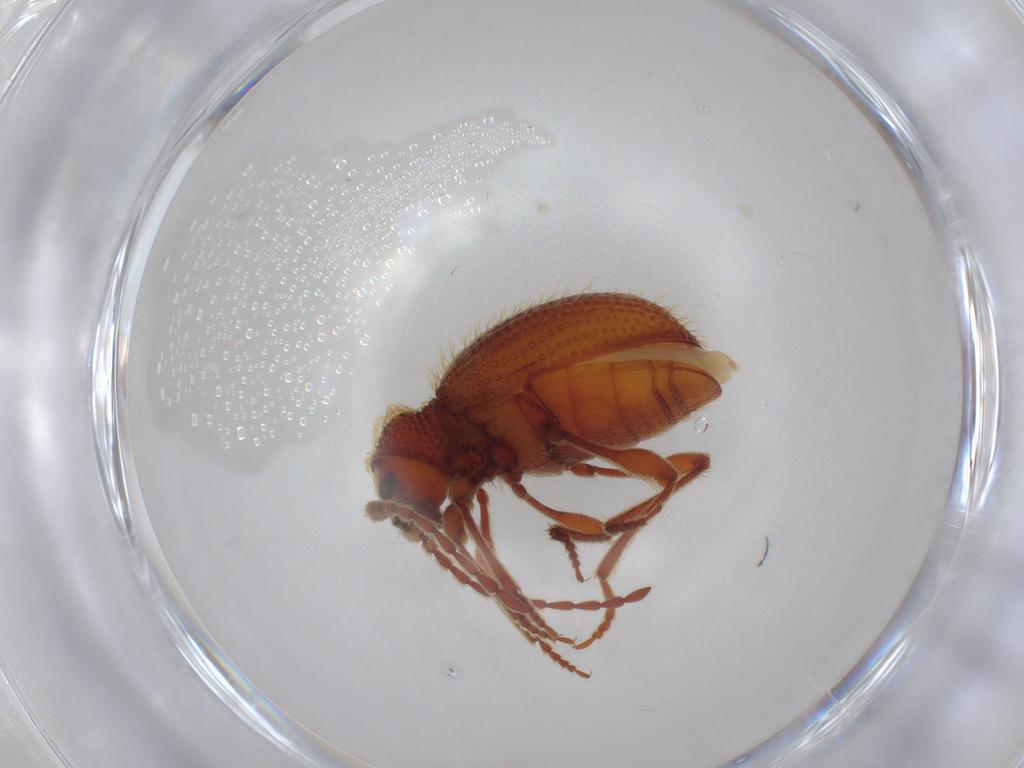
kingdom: Animalia
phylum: Arthropoda
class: Insecta
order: Coleoptera
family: Ptinidae
